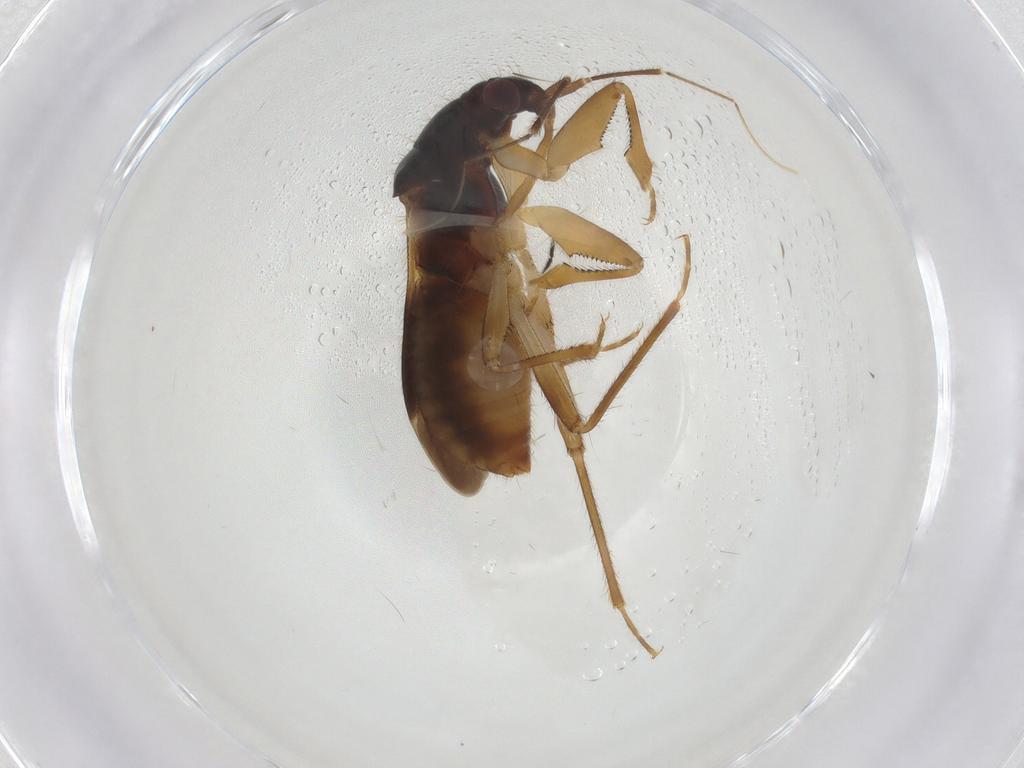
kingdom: Animalia
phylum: Arthropoda
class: Insecta
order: Hemiptera
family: Nabidae
